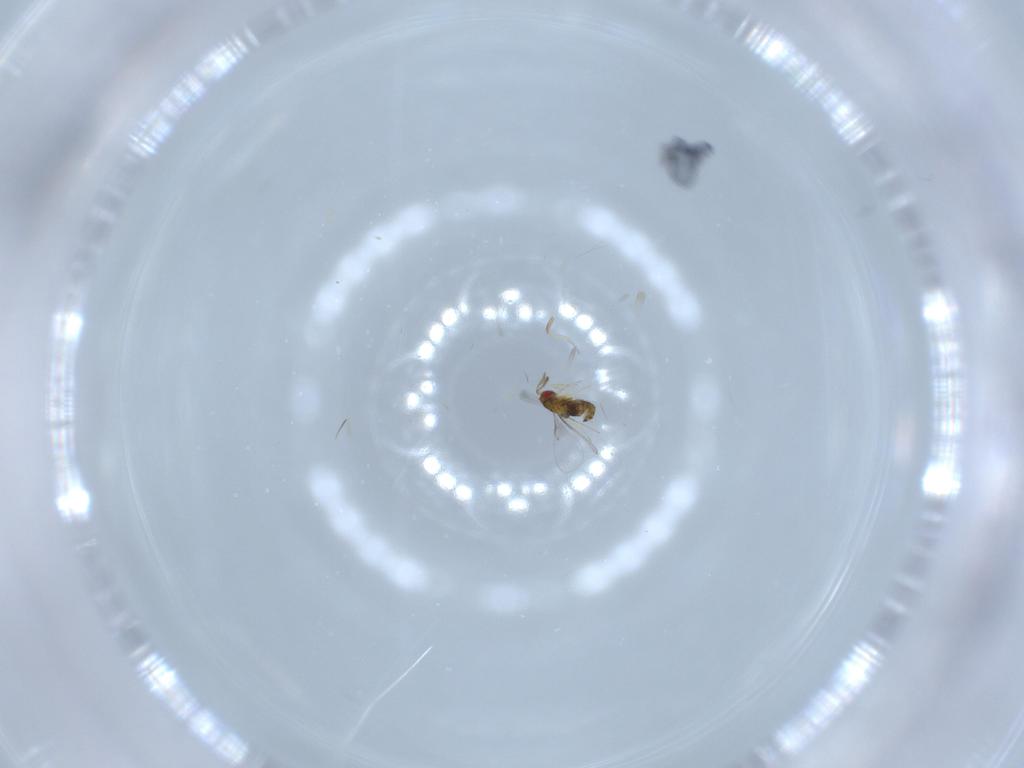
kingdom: Animalia
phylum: Arthropoda
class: Insecta
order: Hymenoptera
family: Trichogrammatidae
